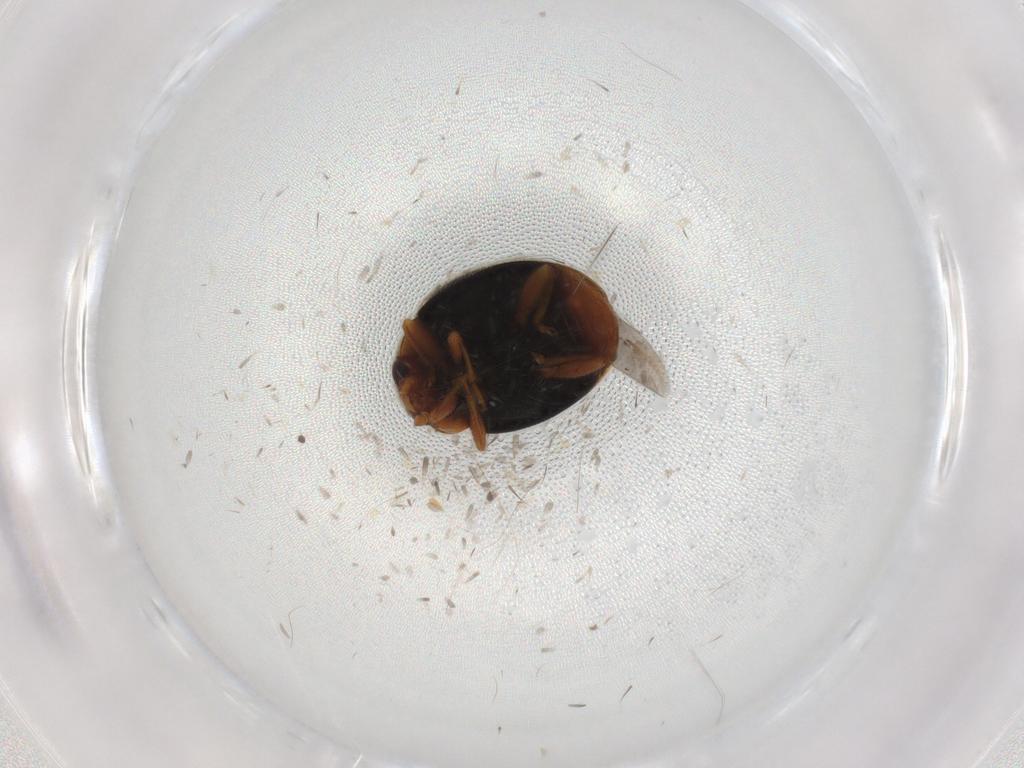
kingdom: Animalia
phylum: Arthropoda
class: Insecta
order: Coleoptera
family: Coccinellidae
